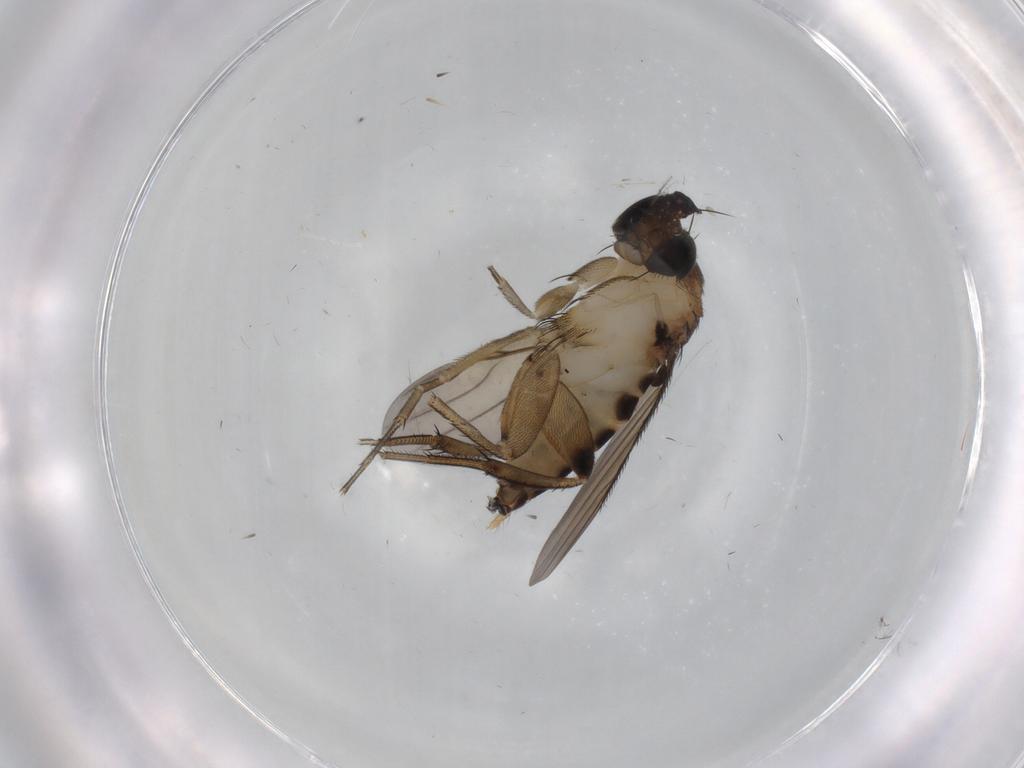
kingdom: Animalia
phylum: Arthropoda
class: Insecta
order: Diptera
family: Phoridae
